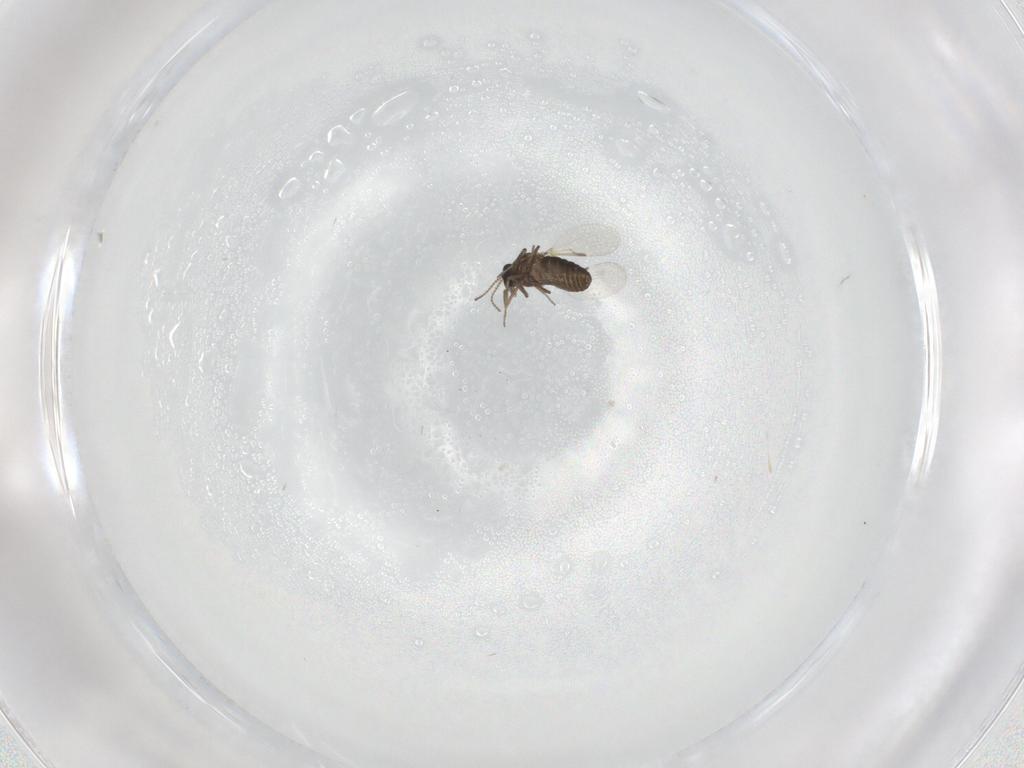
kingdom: Animalia
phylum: Arthropoda
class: Insecta
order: Diptera
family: Ceratopogonidae
